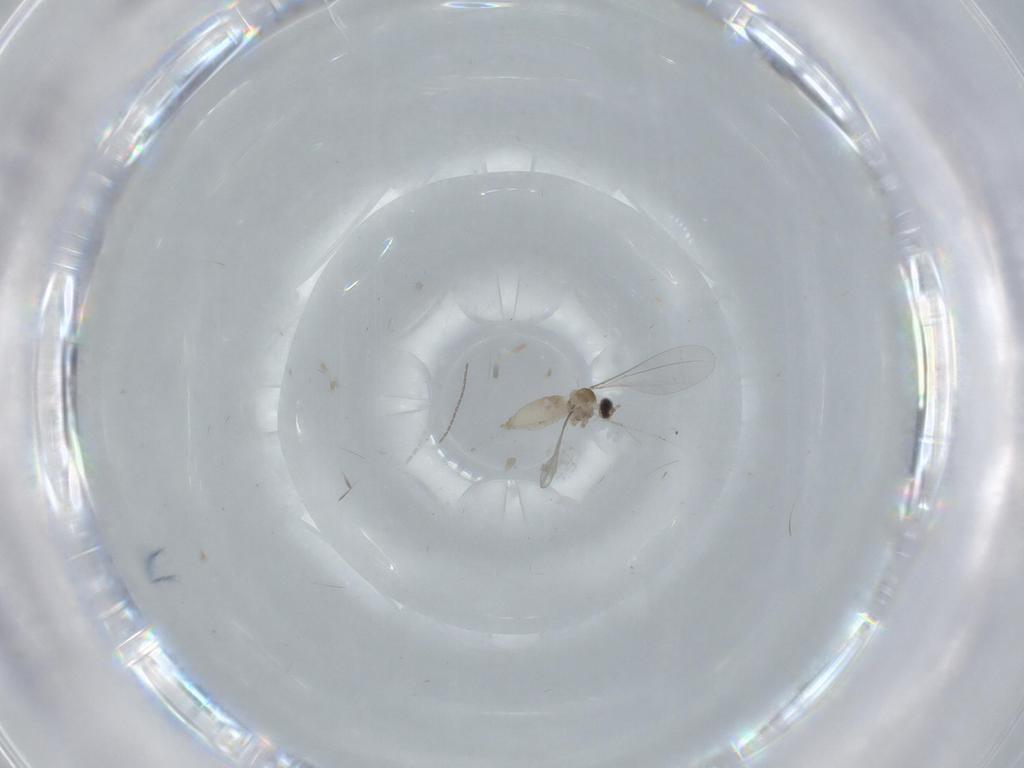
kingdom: Animalia
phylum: Arthropoda
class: Insecta
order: Diptera
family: Cecidomyiidae
